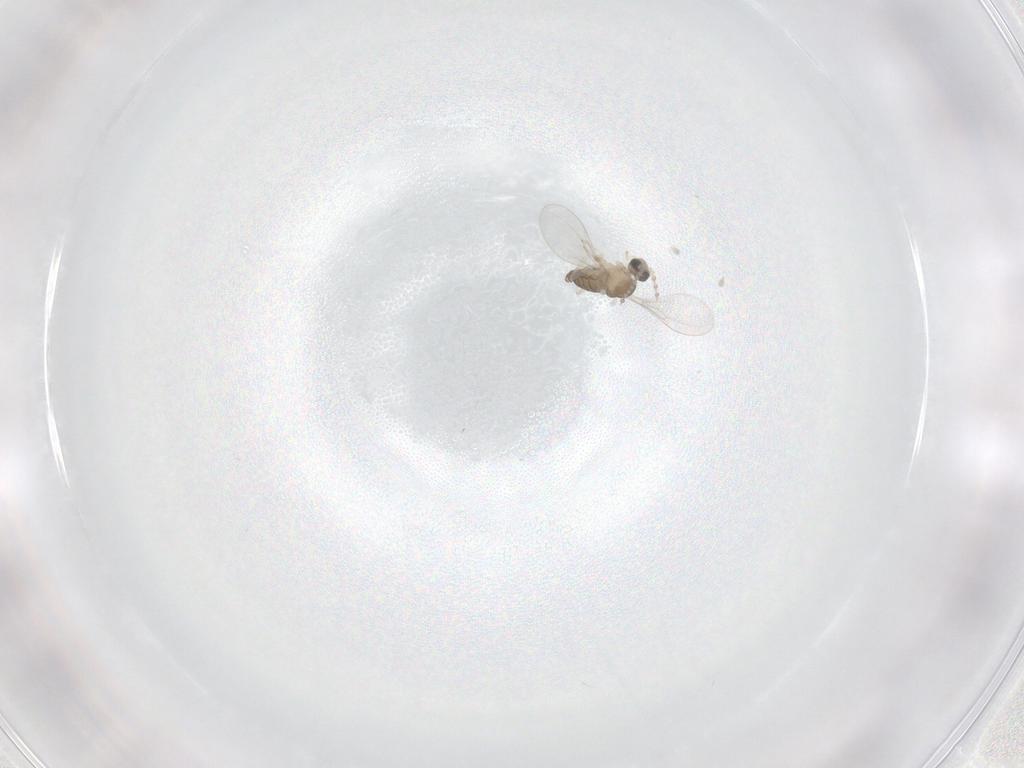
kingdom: Animalia
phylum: Arthropoda
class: Insecta
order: Diptera
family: Cecidomyiidae
